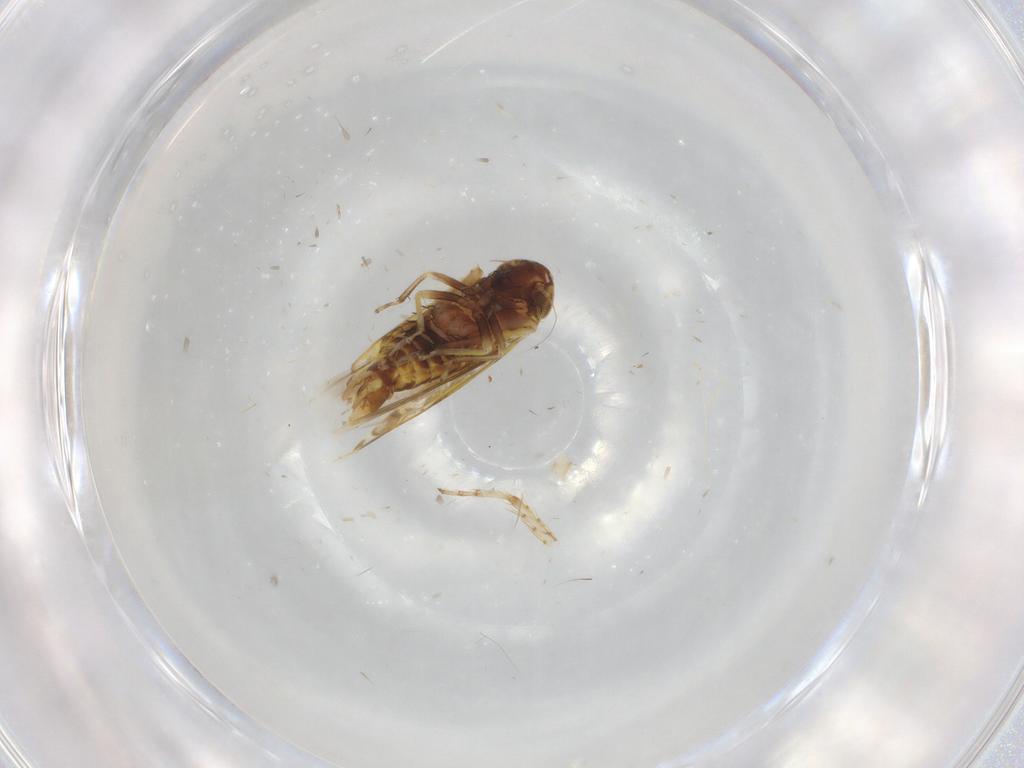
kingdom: Animalia
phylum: Arthropoda
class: Insecta
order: Hemiptera
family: Cicadellidae
